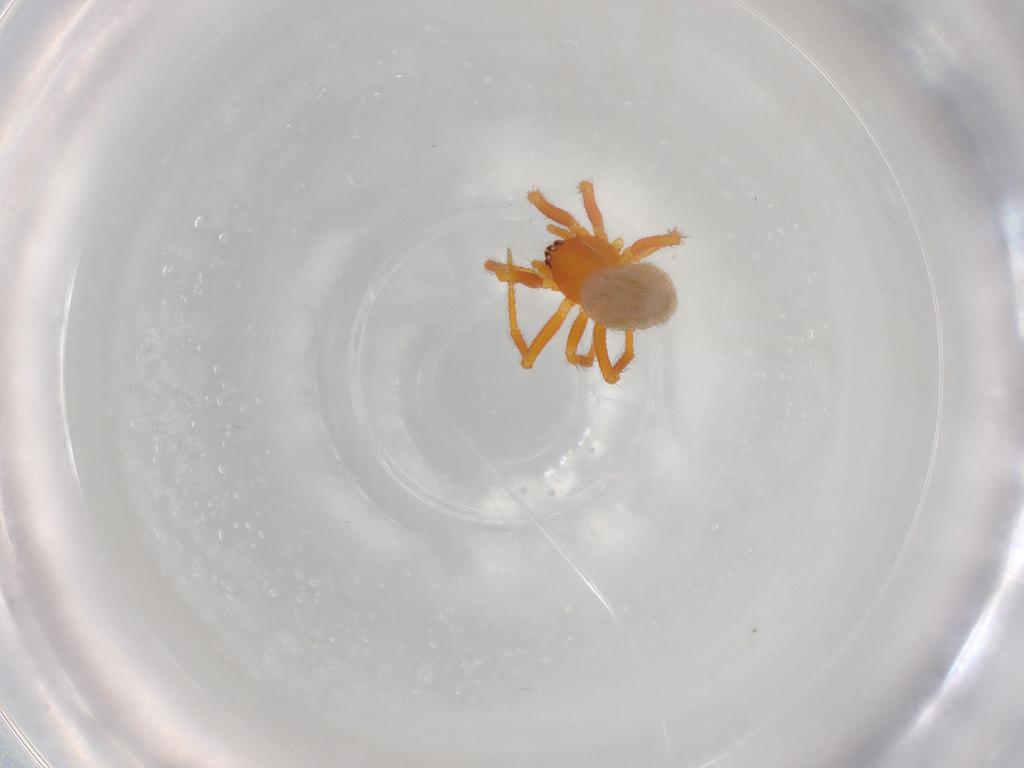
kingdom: Animalia
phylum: Arthropoda
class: Arachnida
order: Araneae
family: Theridiidae
